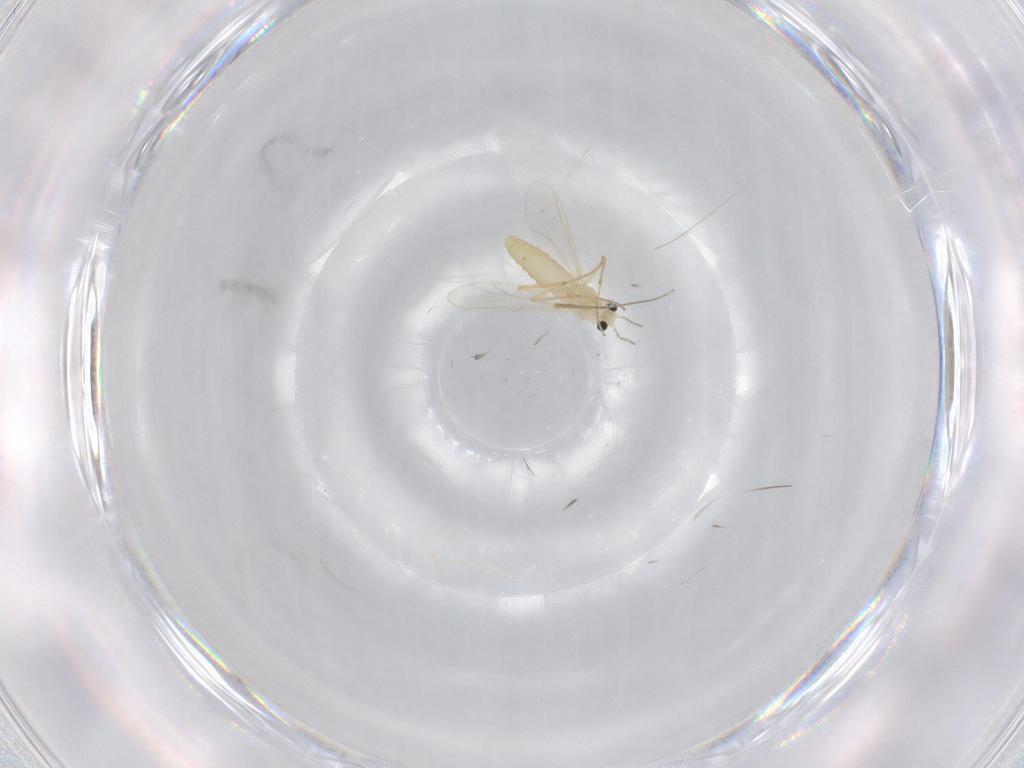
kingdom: Animalia
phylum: Arthropoda
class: Insecta
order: Diptera
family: Chironomidae
